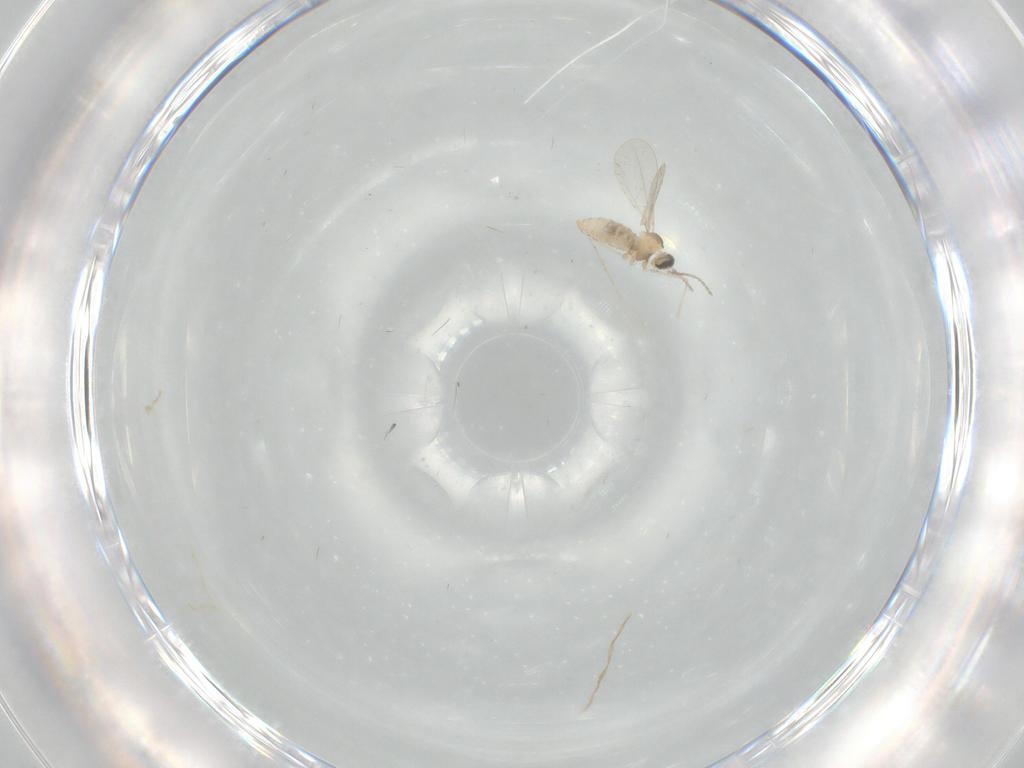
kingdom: Animalia
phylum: Arthropoda
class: Insecta
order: Diptera
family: Cecidomyiidae
